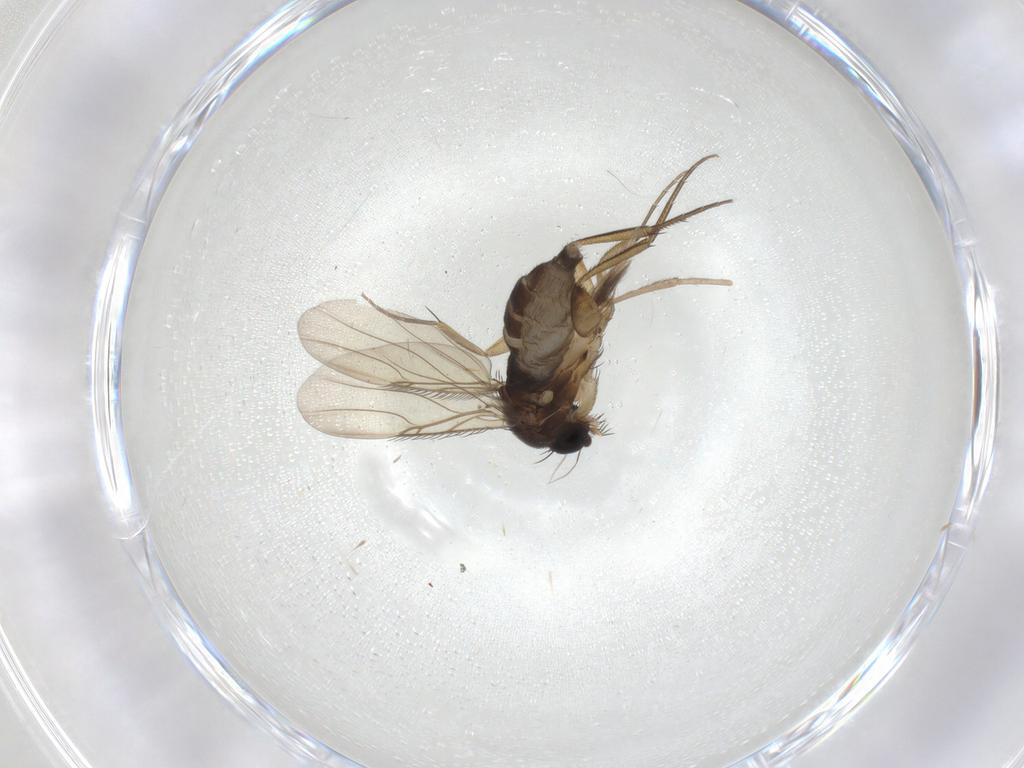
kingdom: Animalia
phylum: Arthropoda
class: Insecta
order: Diptera
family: Phoridae
